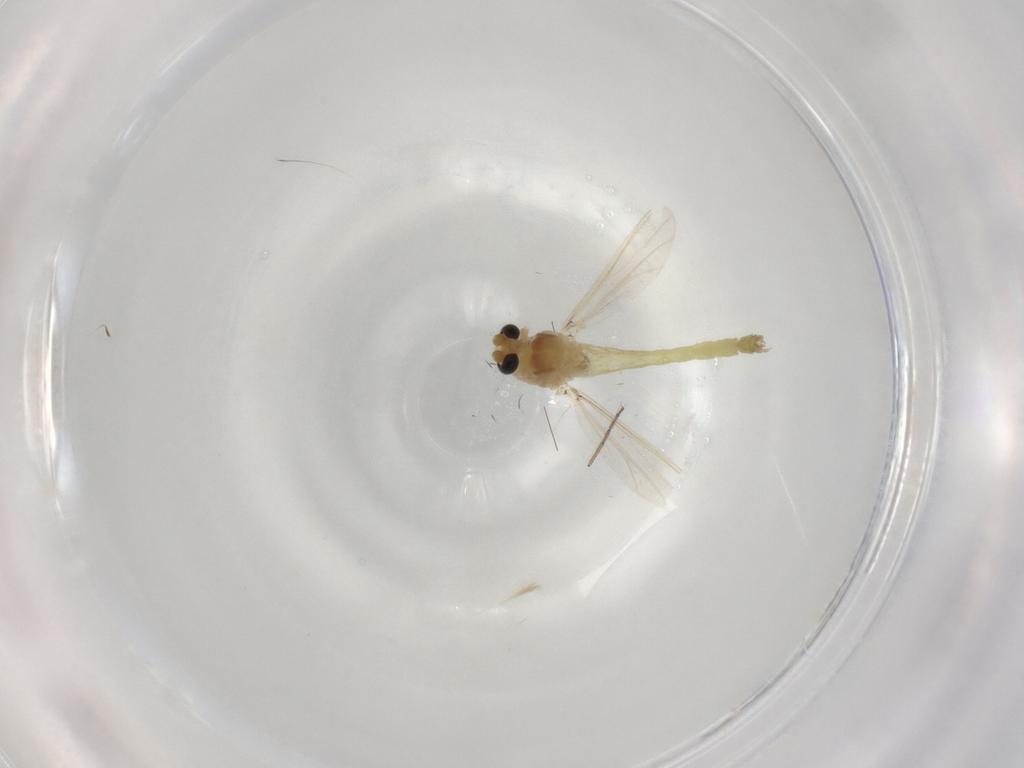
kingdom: Animalia
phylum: Arthropoda
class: Insecta
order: Diptera
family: Chironomidae
